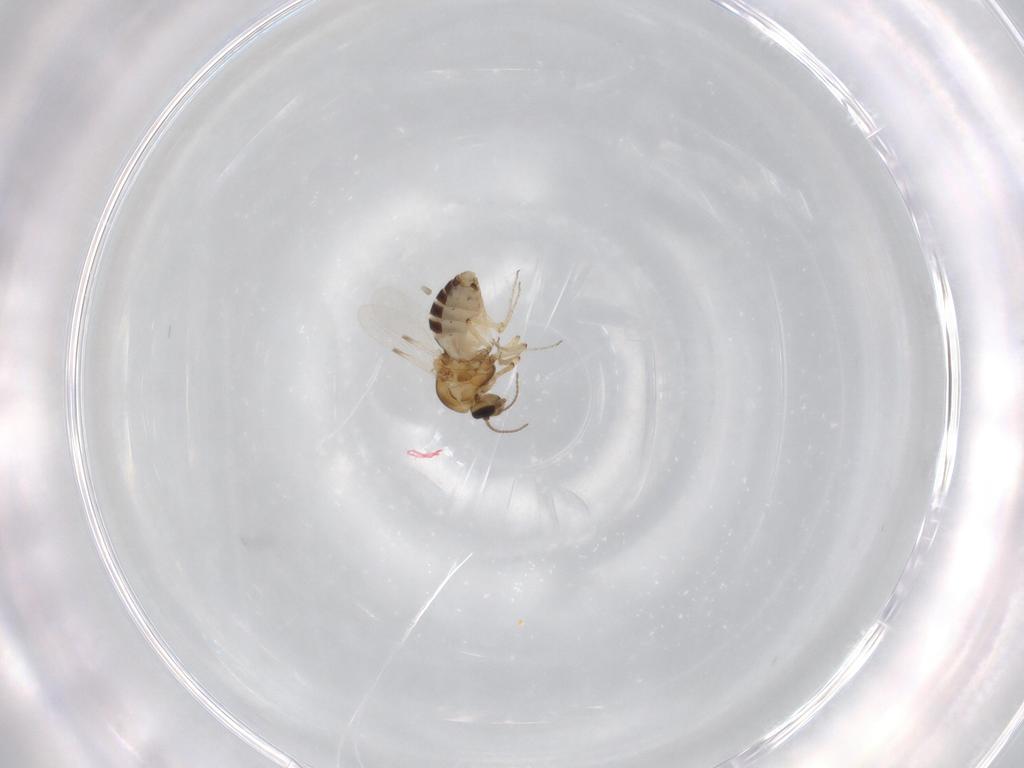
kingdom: Animalia
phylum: Arthropoda
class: Insecta
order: Diptera
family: Ceratopogonidae
